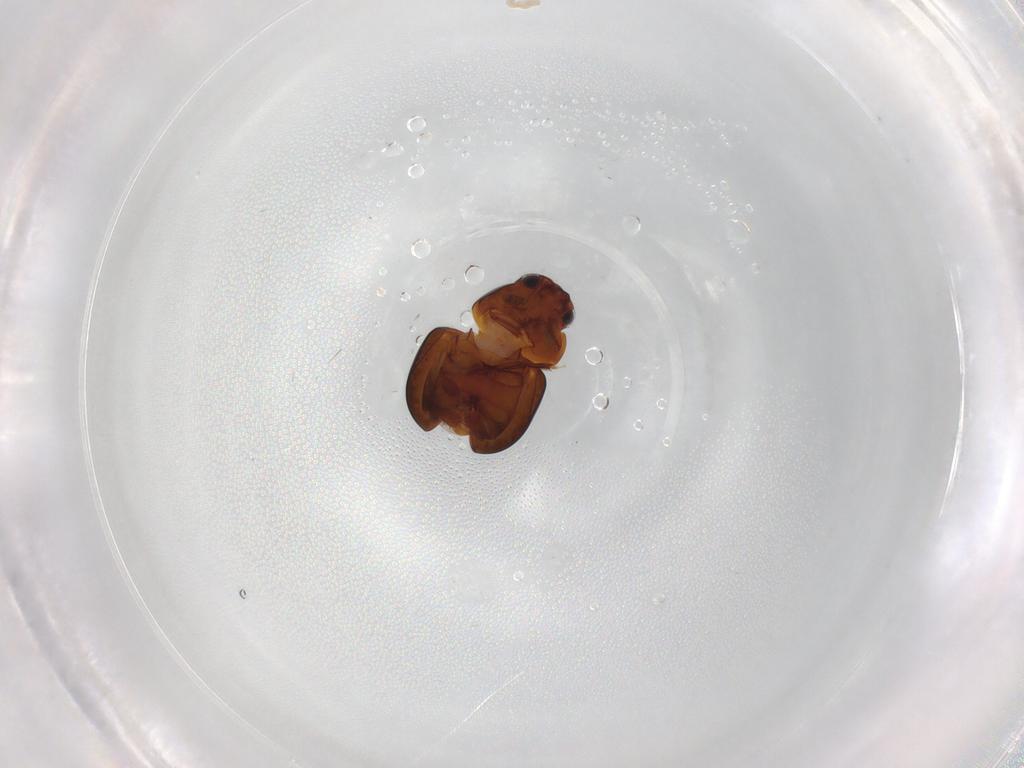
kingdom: Animalia
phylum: Arthropoda
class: Insecta
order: Coleoptera
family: Leiodidae
